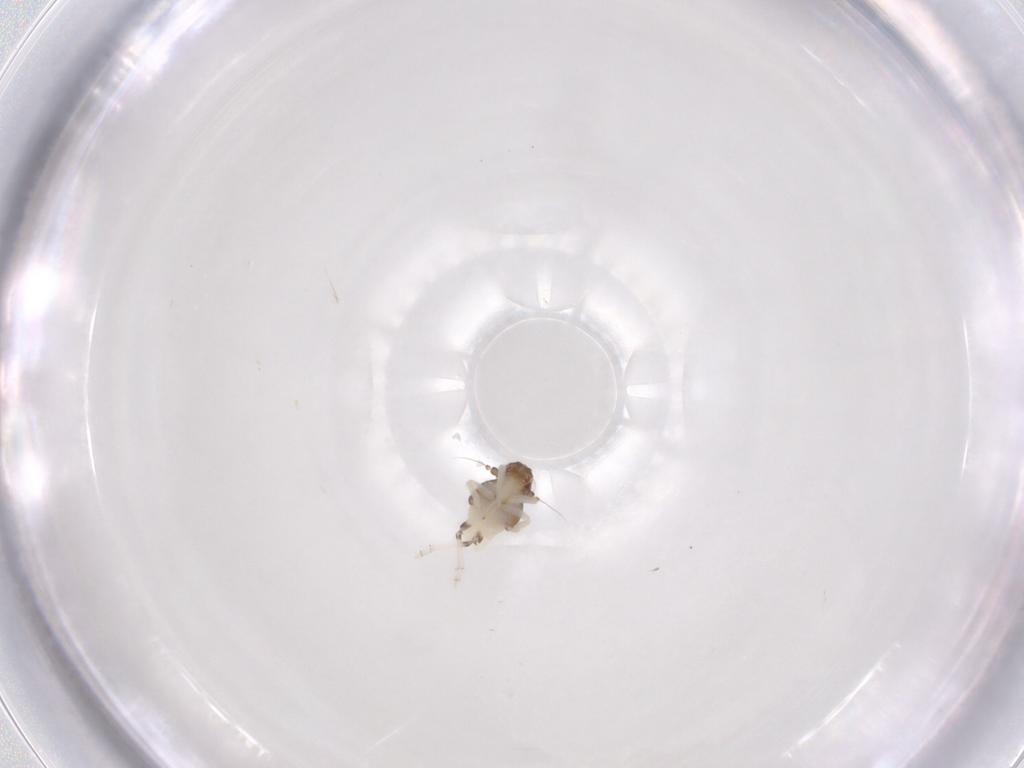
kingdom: Animalia
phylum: Arthropoda
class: Insecta
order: Hemiptera
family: Nogodinidae
